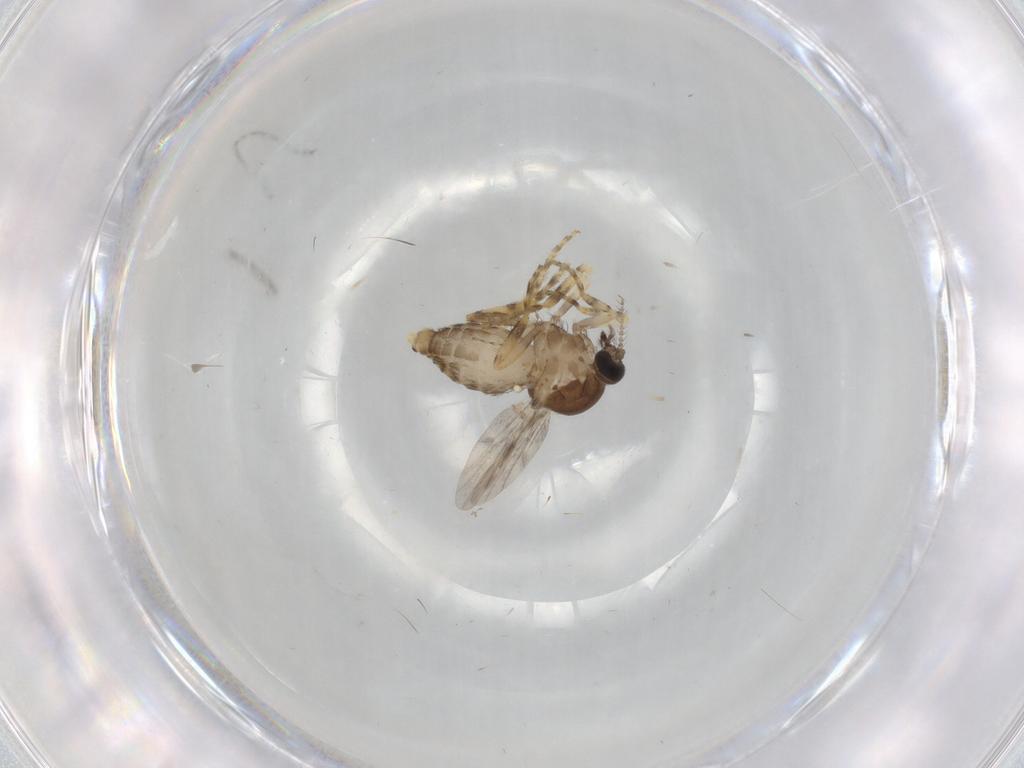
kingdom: Animalia
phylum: Arthropoda
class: Insecta
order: Diptera
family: Ceratopogonidae
